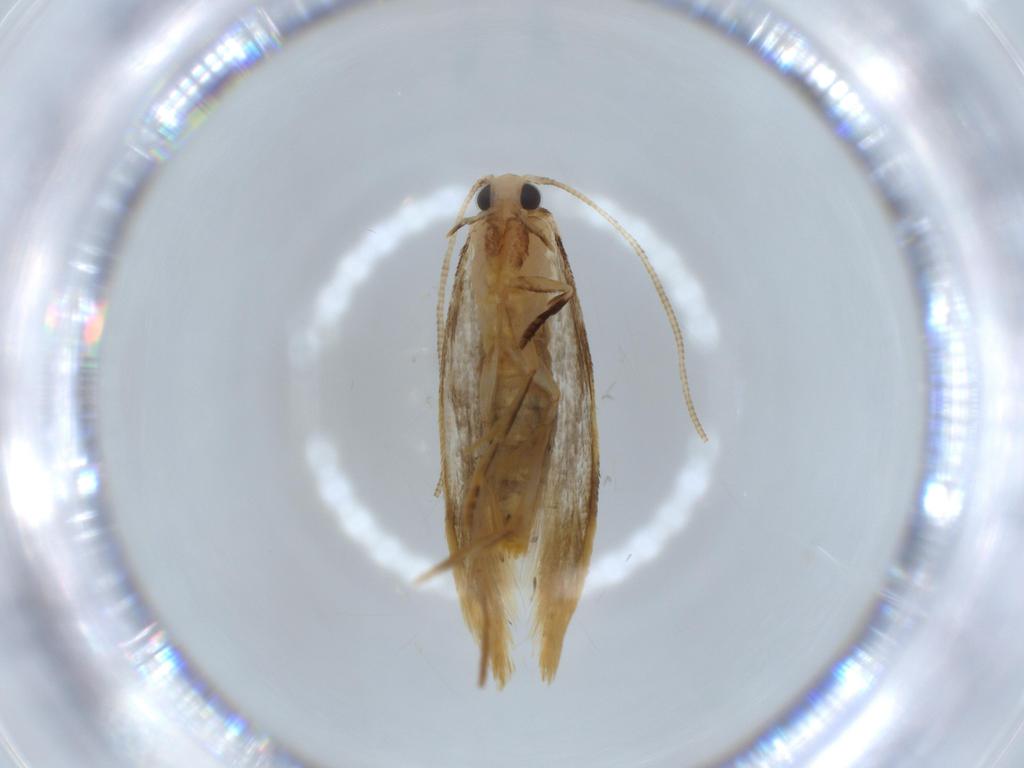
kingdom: Animalia
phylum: Arthropoda
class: Insecta
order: Lepidoptera
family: Tineidae
